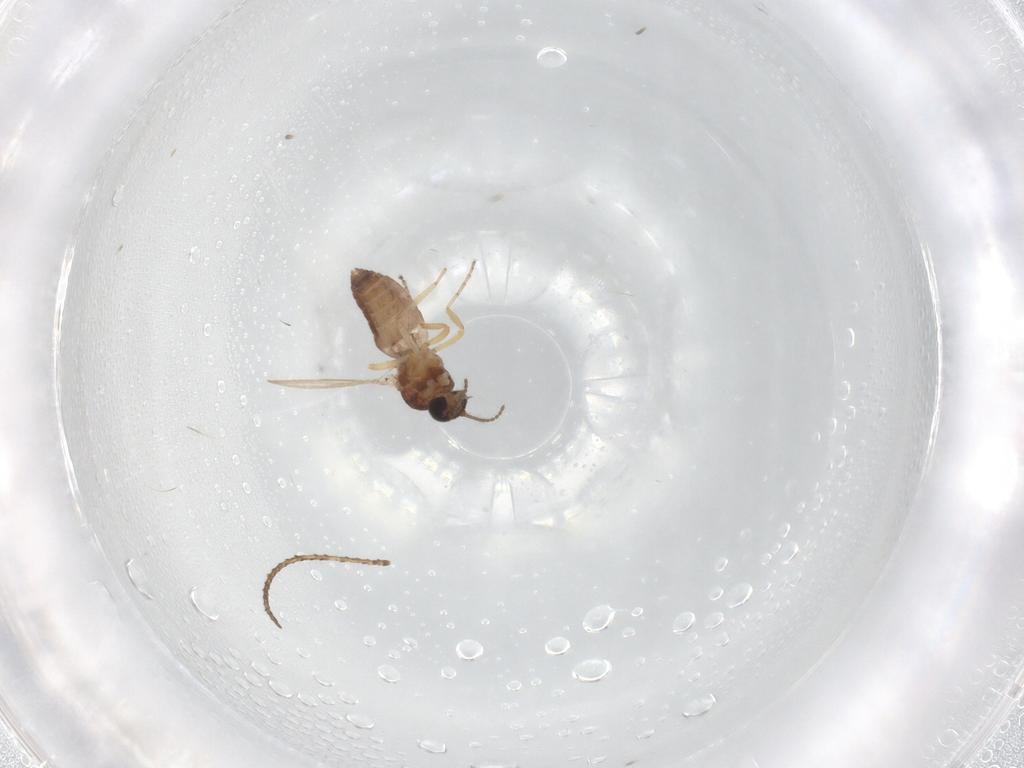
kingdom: Animalia
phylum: Arthropoda
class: Insecta
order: Diptera
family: Ceratopogonidae
